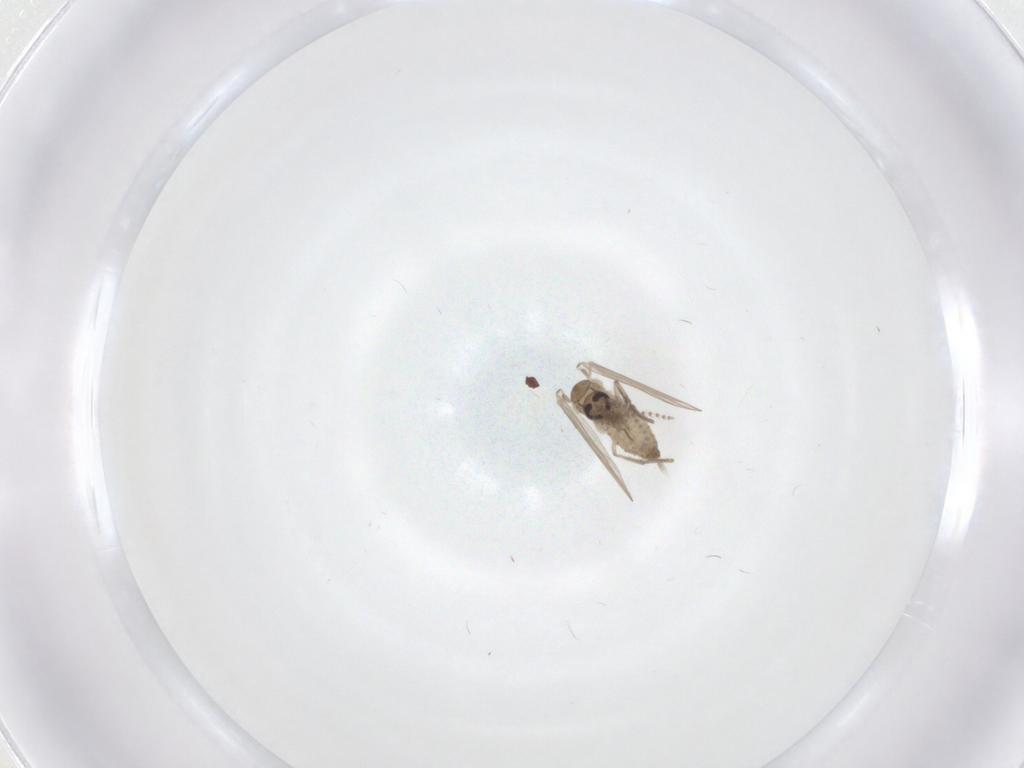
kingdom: Animalia
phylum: Arthropoda
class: Insecta
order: Diptera
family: Psychodidae
